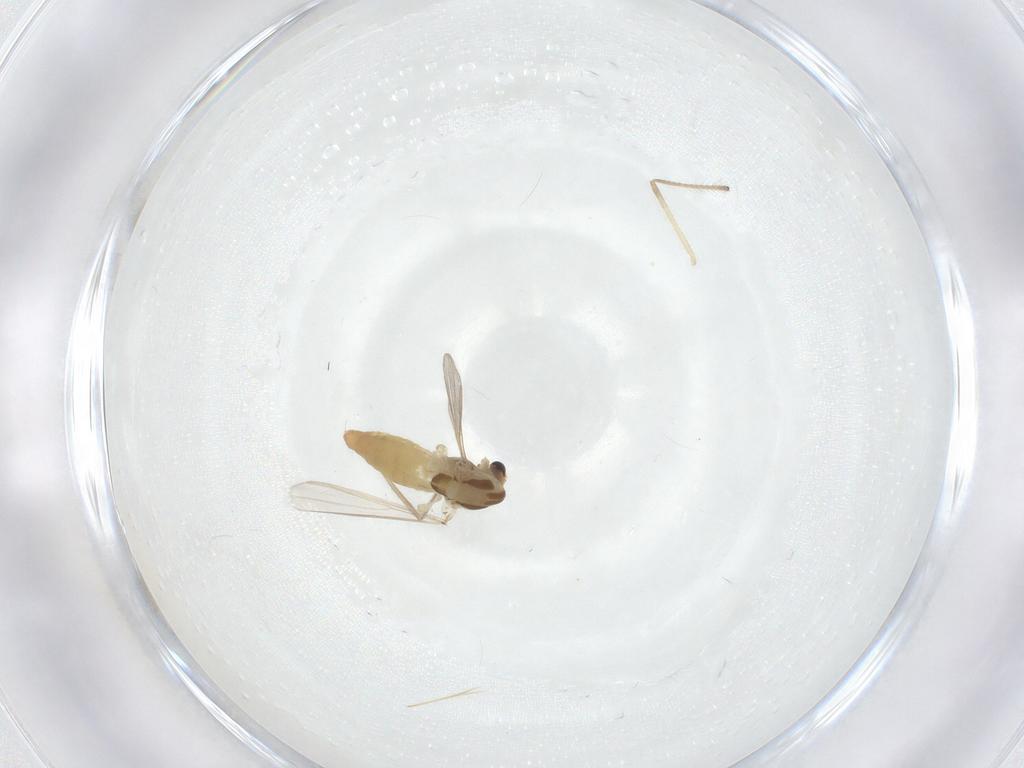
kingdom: Animalia
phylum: Arthropoda
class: Insecta
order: Diptera
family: Chironomidae
